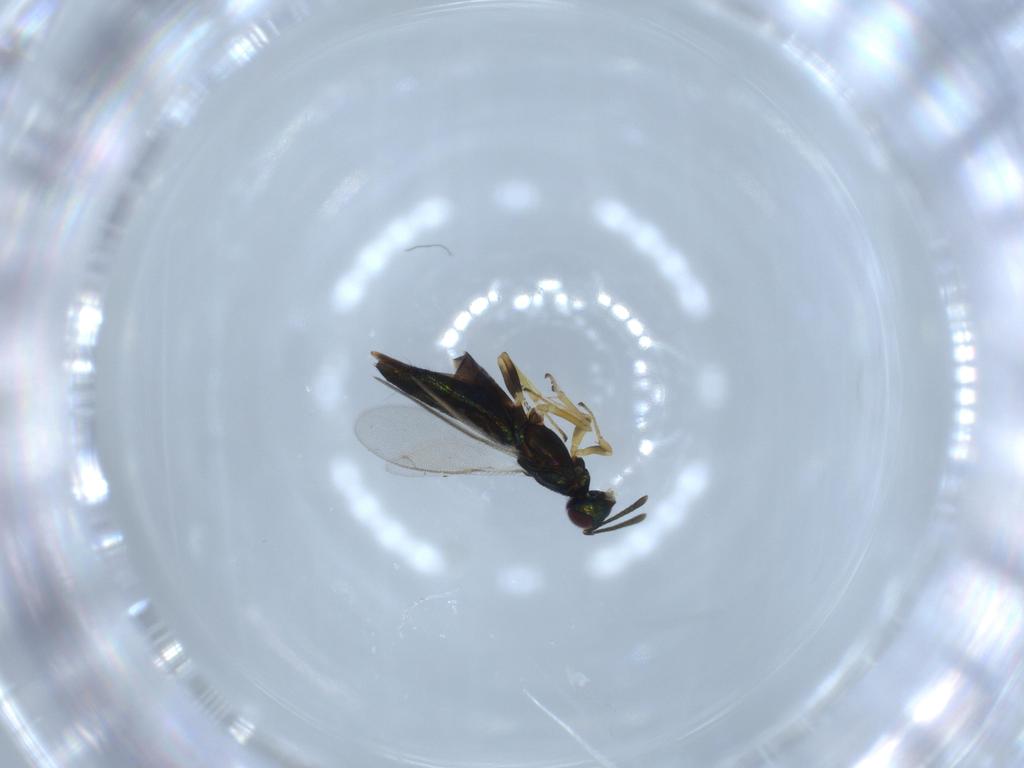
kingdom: Animalia
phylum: Arthropoda
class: Insecta
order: Hymenoptera
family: Eupelmidae
